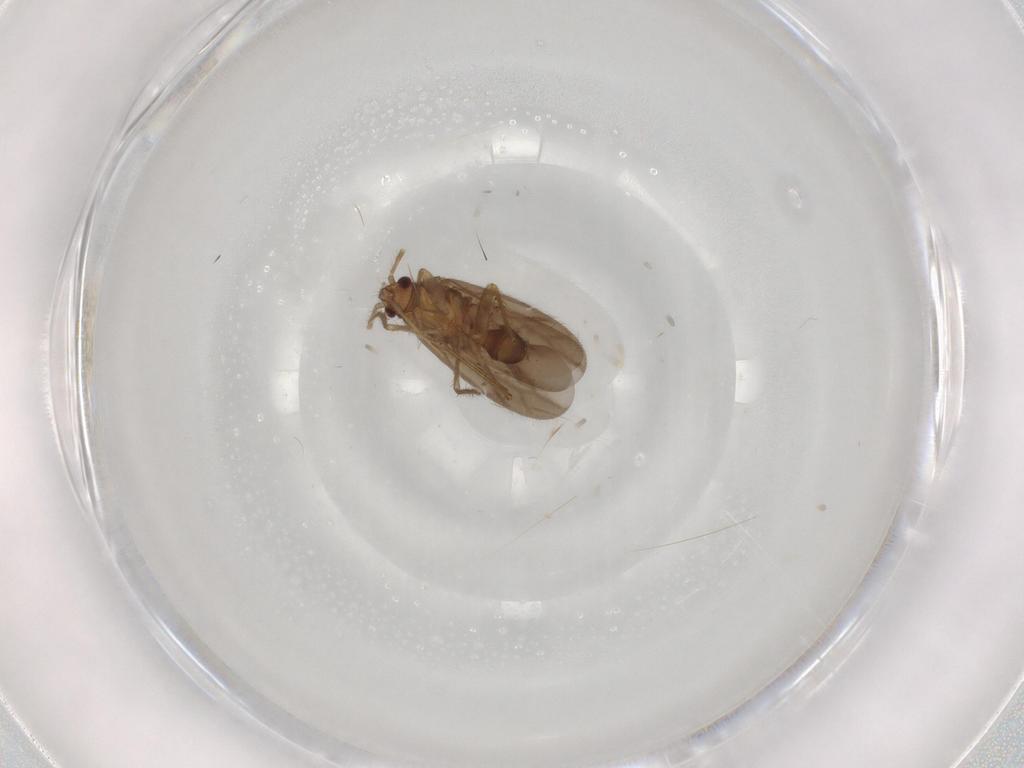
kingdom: Animalia
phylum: Arthropoda
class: Insecta
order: Hemiptera
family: Ceratocombidae
